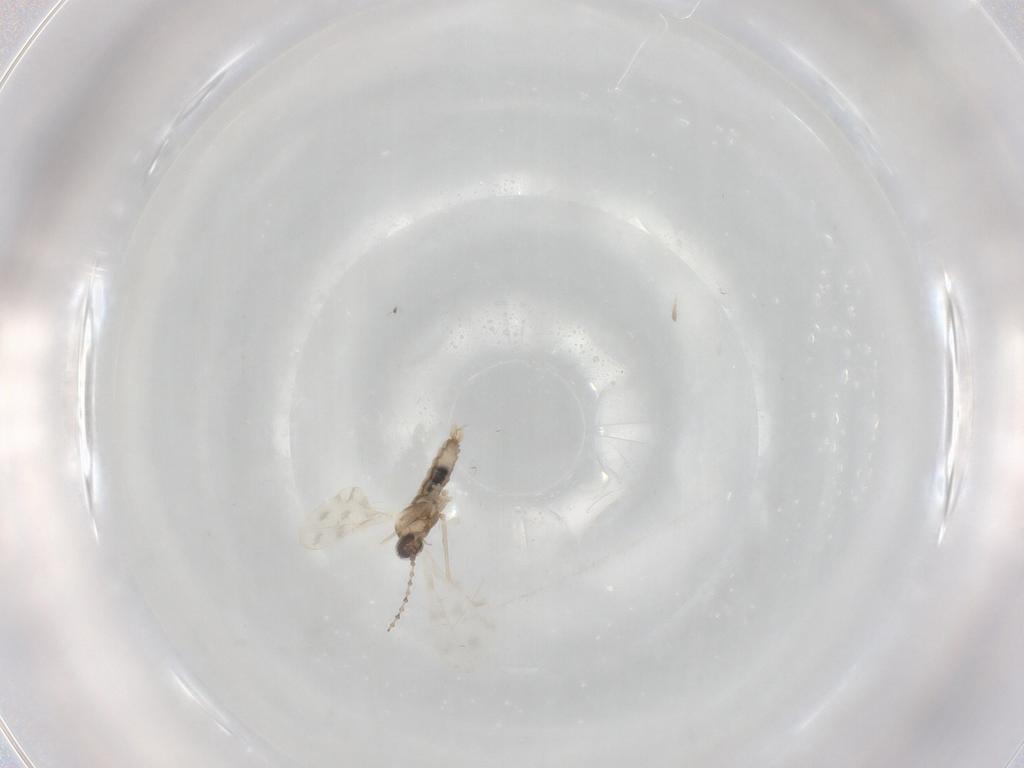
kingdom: Animalia
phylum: Arthropoda
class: Insecta
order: Diptera
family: Cecidomyiidae
